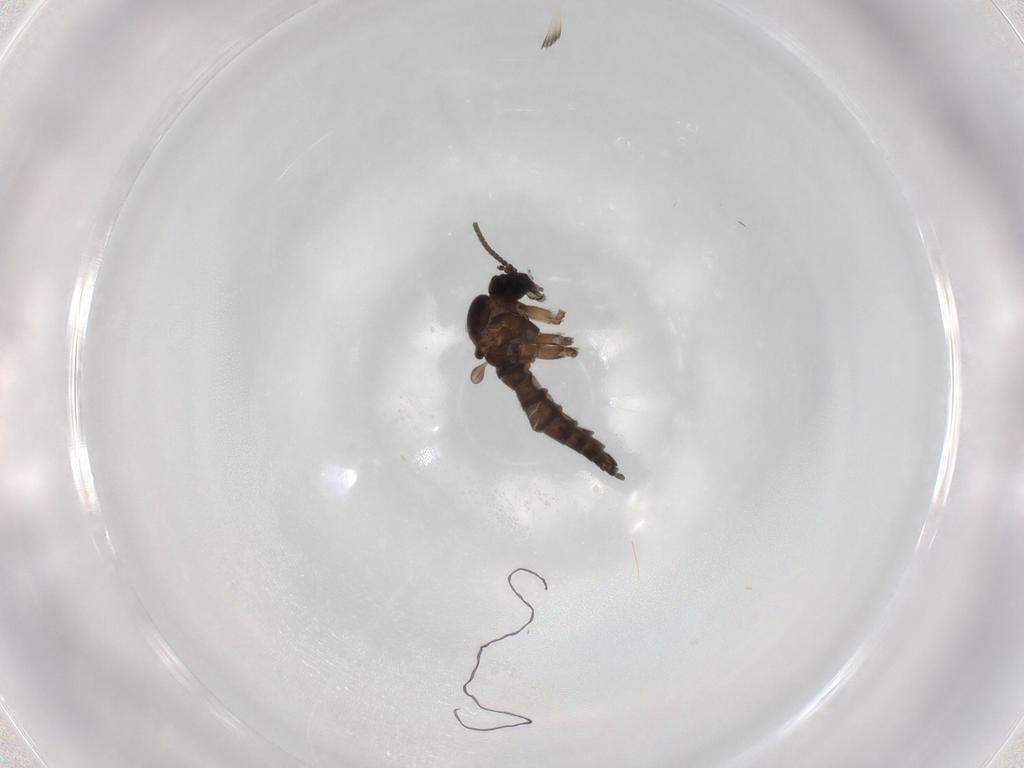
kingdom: Animalia
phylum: Arthropoda
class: Insecta
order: Diptera
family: Sciaridae
